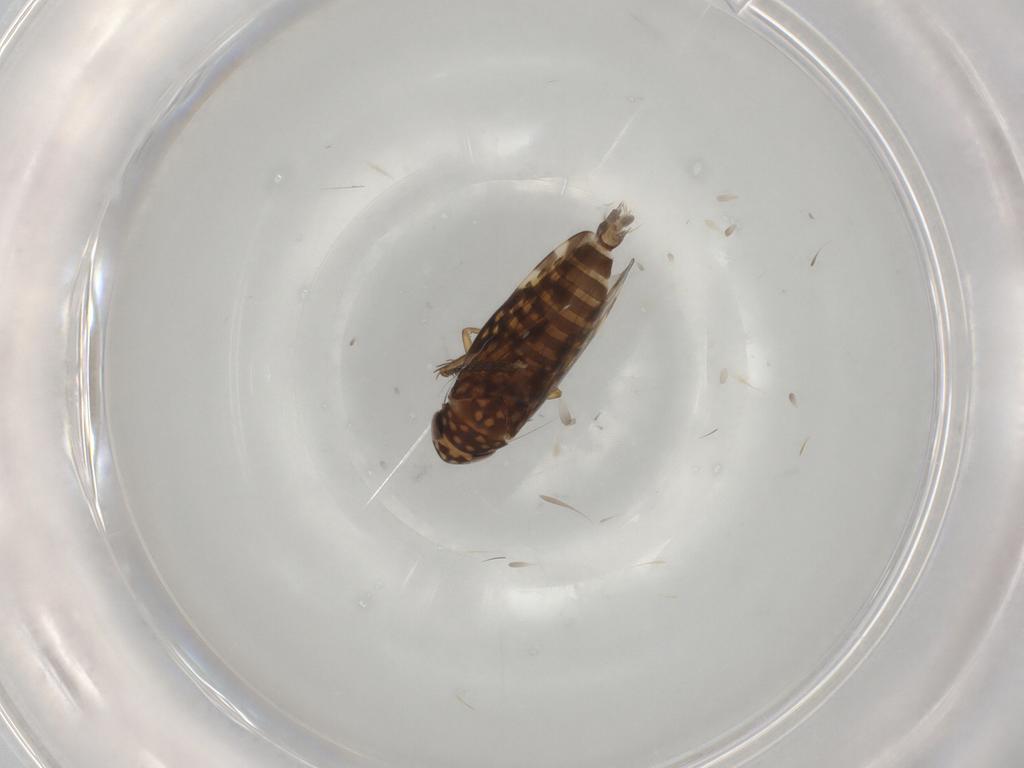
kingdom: Animalia
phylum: Arthropoda
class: Insecta
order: Hemiptera
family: Cicadellidae
